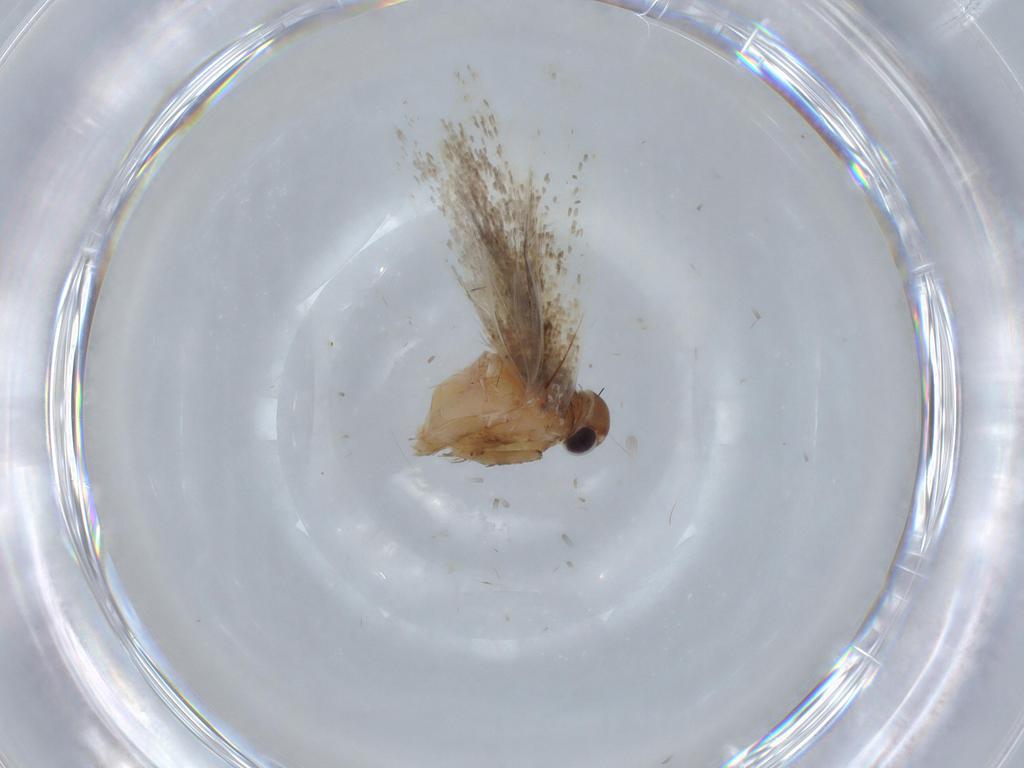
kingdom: Animalia
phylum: Arthropoda
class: Insecta
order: Lepidoptera
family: Gelechiidae
